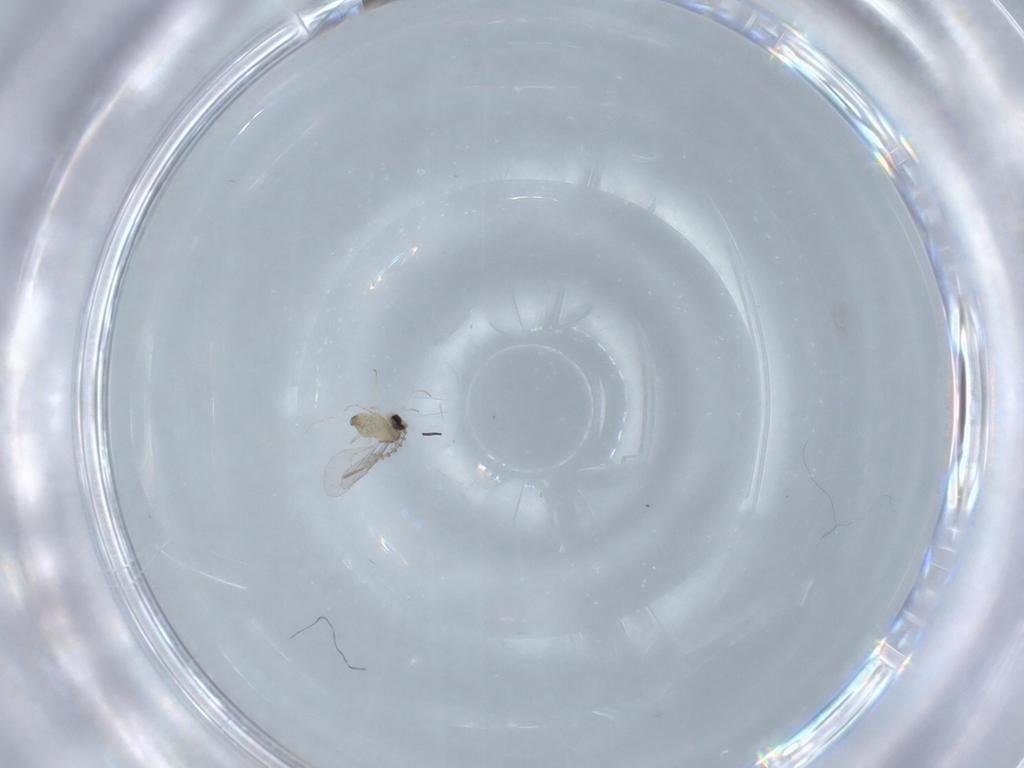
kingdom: Animalia
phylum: Arthropoda
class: Insecta
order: Diptera
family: Cecidomyiidae
